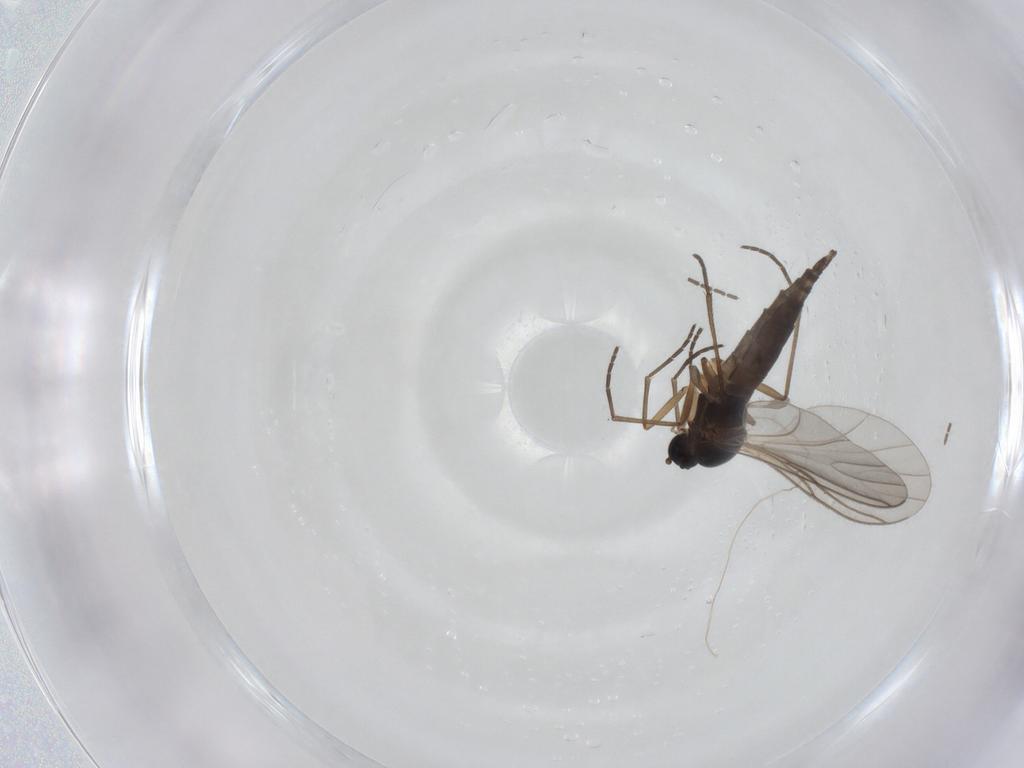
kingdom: Animalia
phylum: Arthropoda
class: Insecta
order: Diptera
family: Sciaridae
